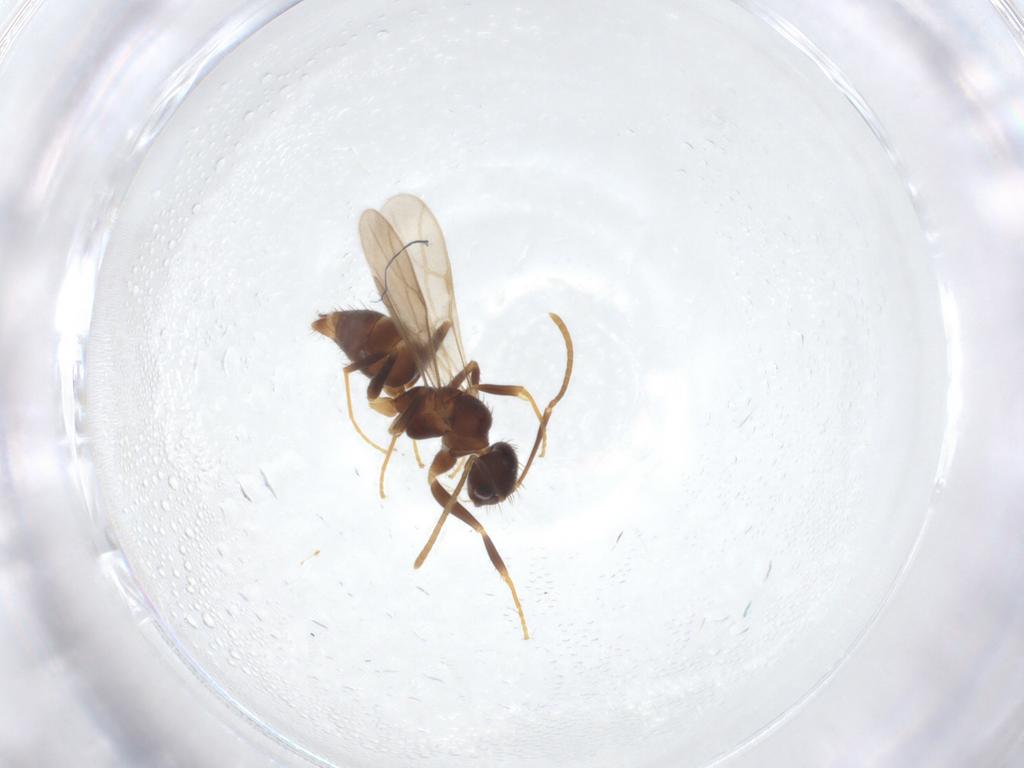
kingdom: Animalia
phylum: Arthropoda
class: Insecta
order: Hymenoptera
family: Formicidae
